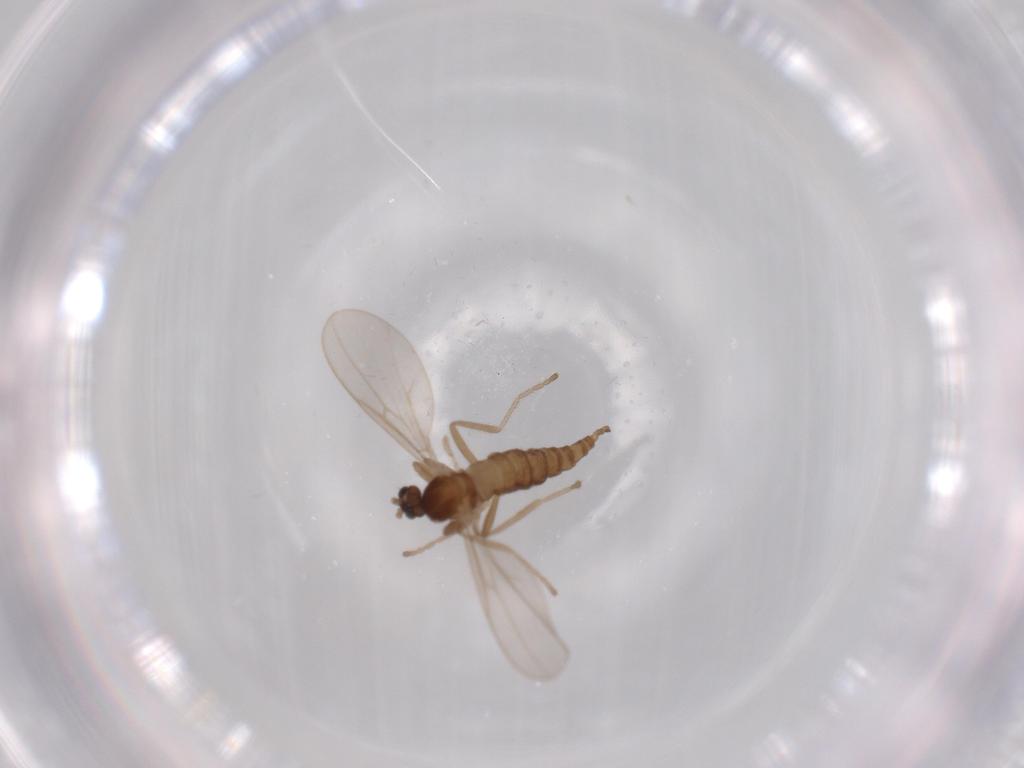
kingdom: Animalia
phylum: Arthropoda
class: Insecta
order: Diptera
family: Cecidomyiidae
